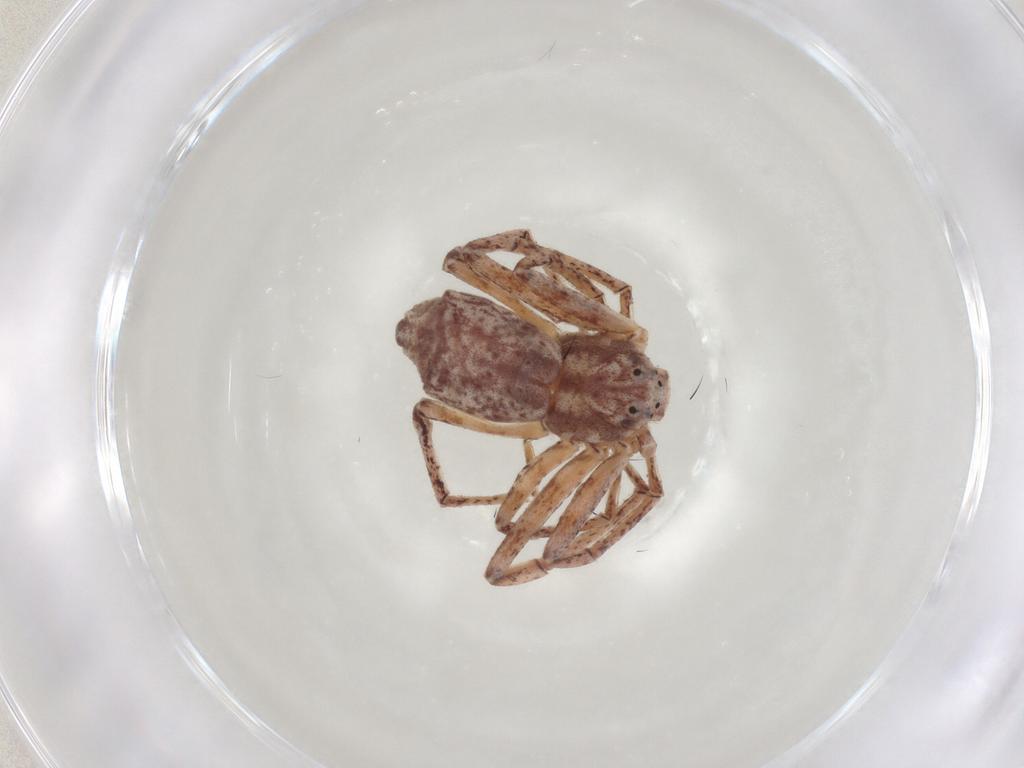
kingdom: Animalia
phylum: Arthropoda
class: Arachnida
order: Araneae
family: Philodromidae
